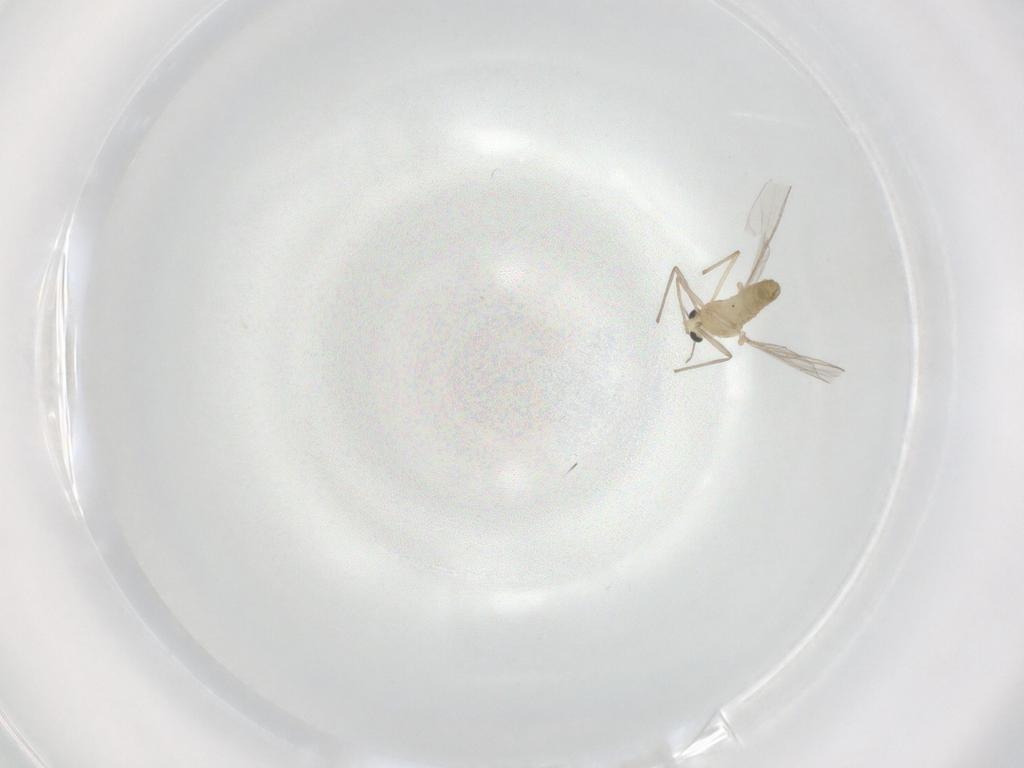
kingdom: Animalia
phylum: Arthropoda
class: Insecta
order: Diptera
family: Chironomidae
